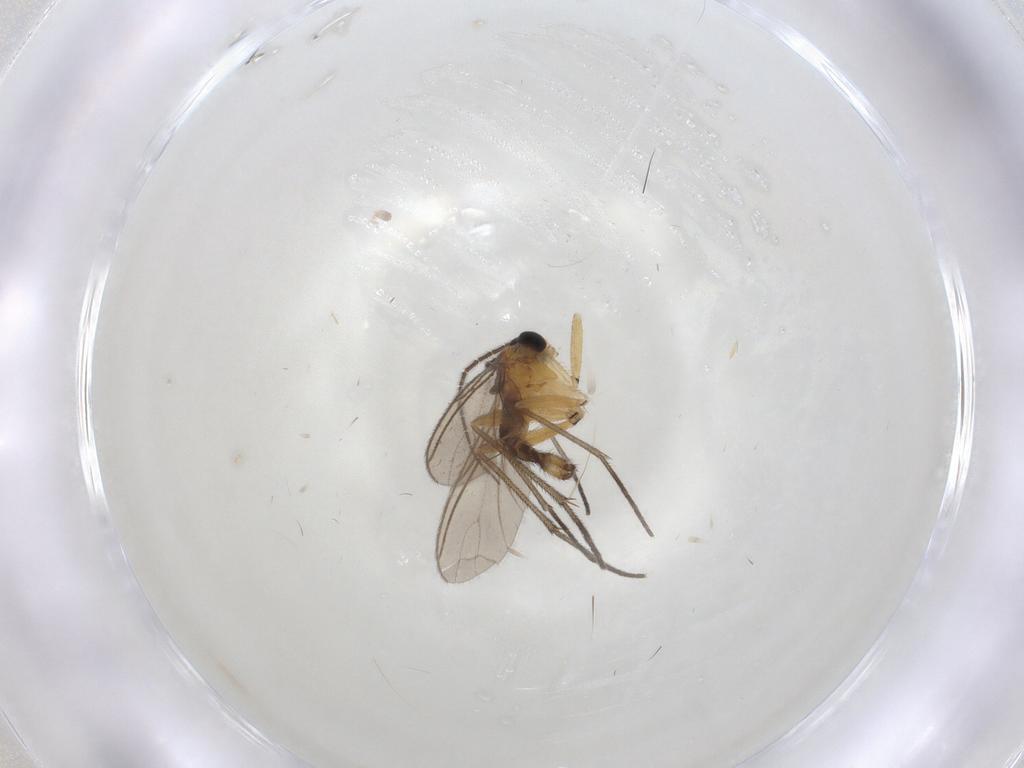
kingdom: Animalia
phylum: Arthropoda
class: Insecta
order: Diptera
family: Sciaridae
